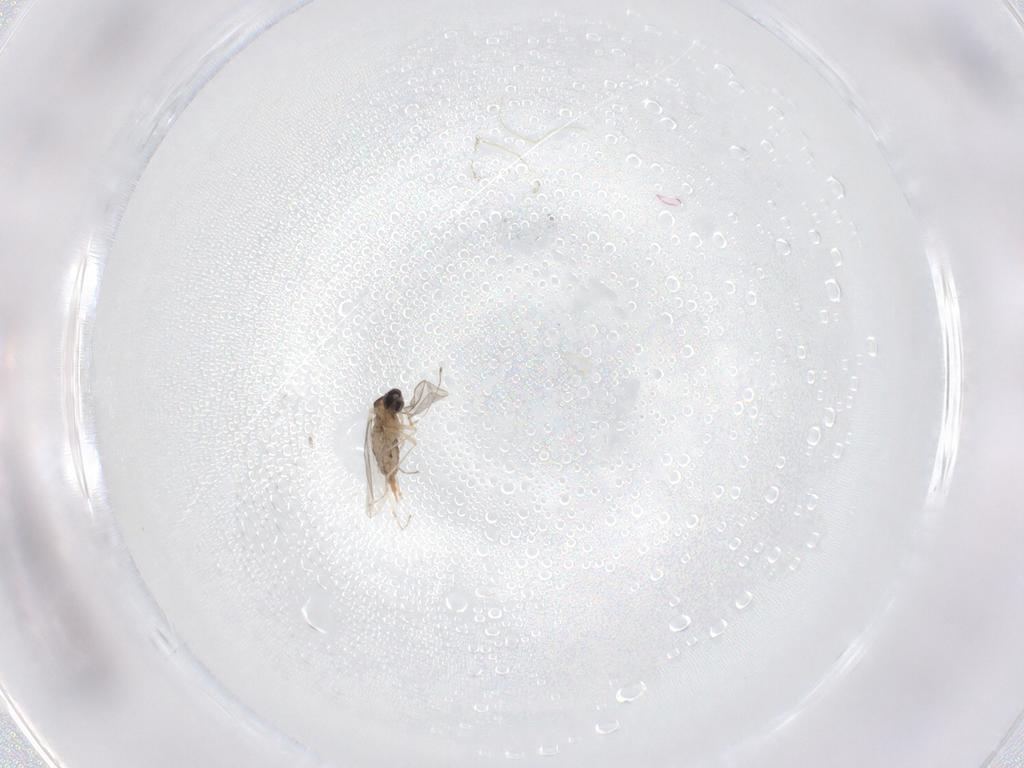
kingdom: Animalia
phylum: Arthropoda
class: Insecta
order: Diptera
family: Cecidomyiidae
